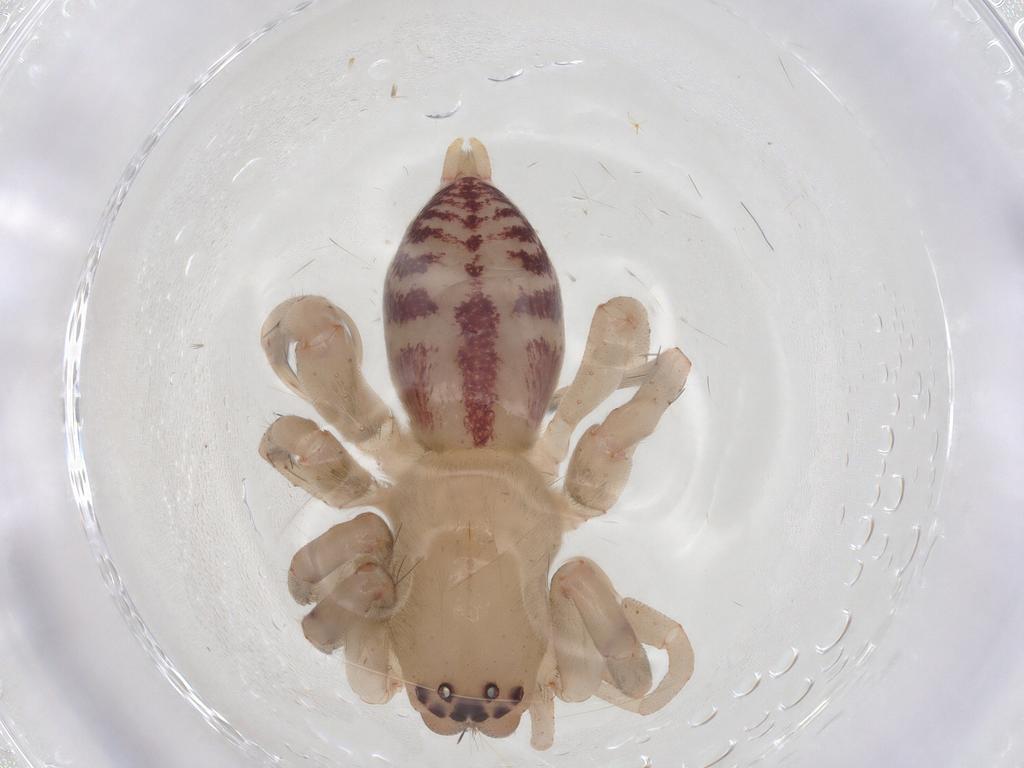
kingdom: Animalia
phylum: Arthropoda
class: Arachnida
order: Araneae
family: Clubionidae
